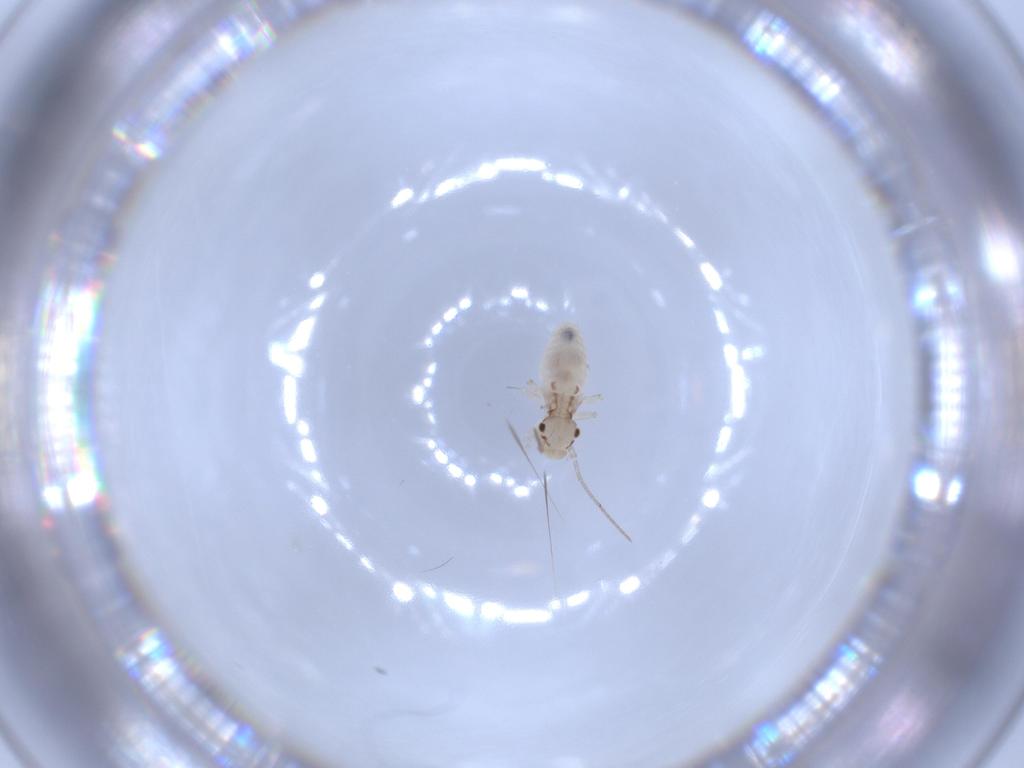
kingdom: Animalia
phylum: Arthropoda
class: Insecta
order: Psocodea
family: Caeciliusidae
